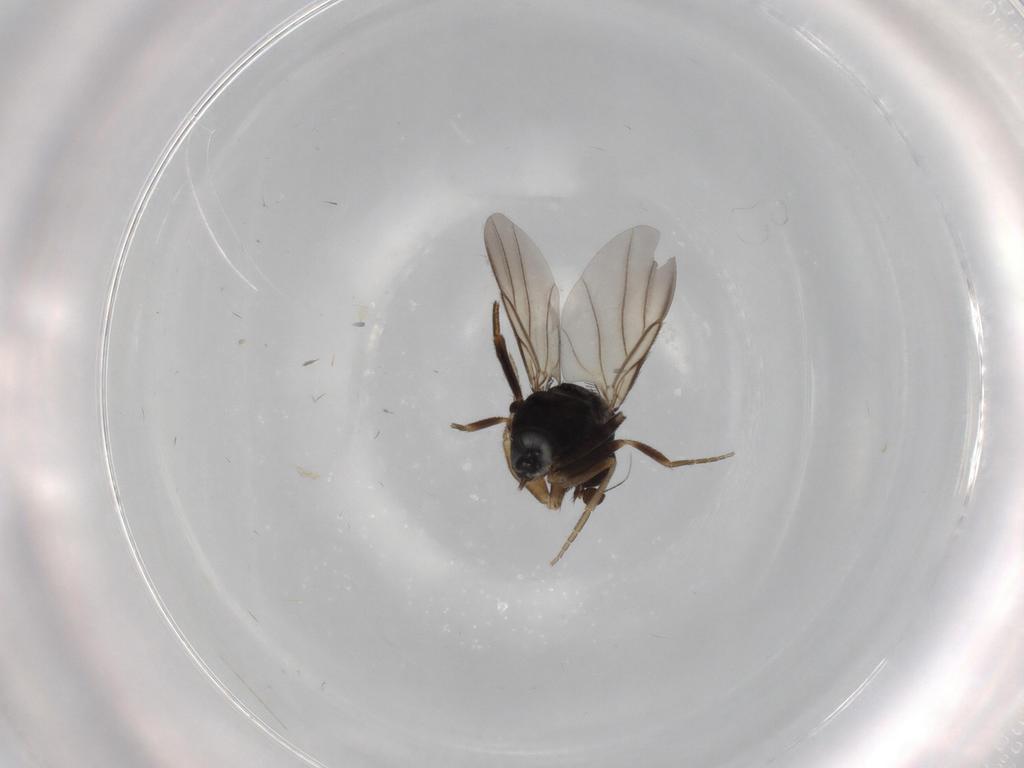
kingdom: Animalia
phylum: Arthropoda
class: Insecta
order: Diptera
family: Cecidomyiidae
